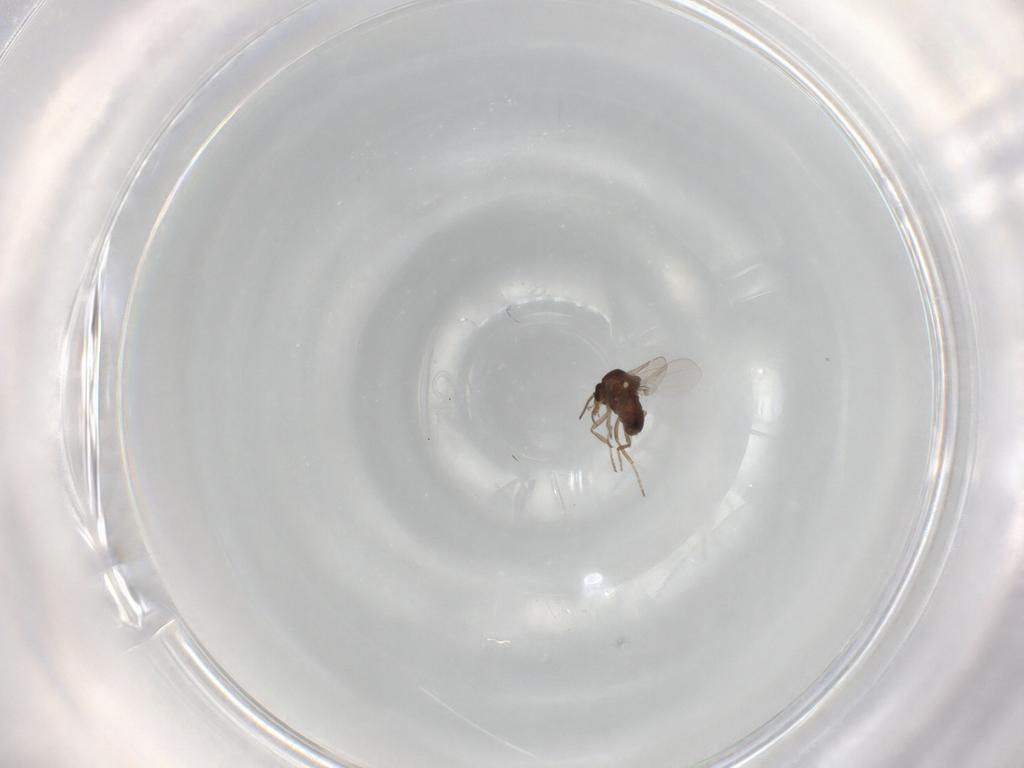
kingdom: Animalia
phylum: Arthropoda
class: Insecta
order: Diptera
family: Ceratopogonidae
